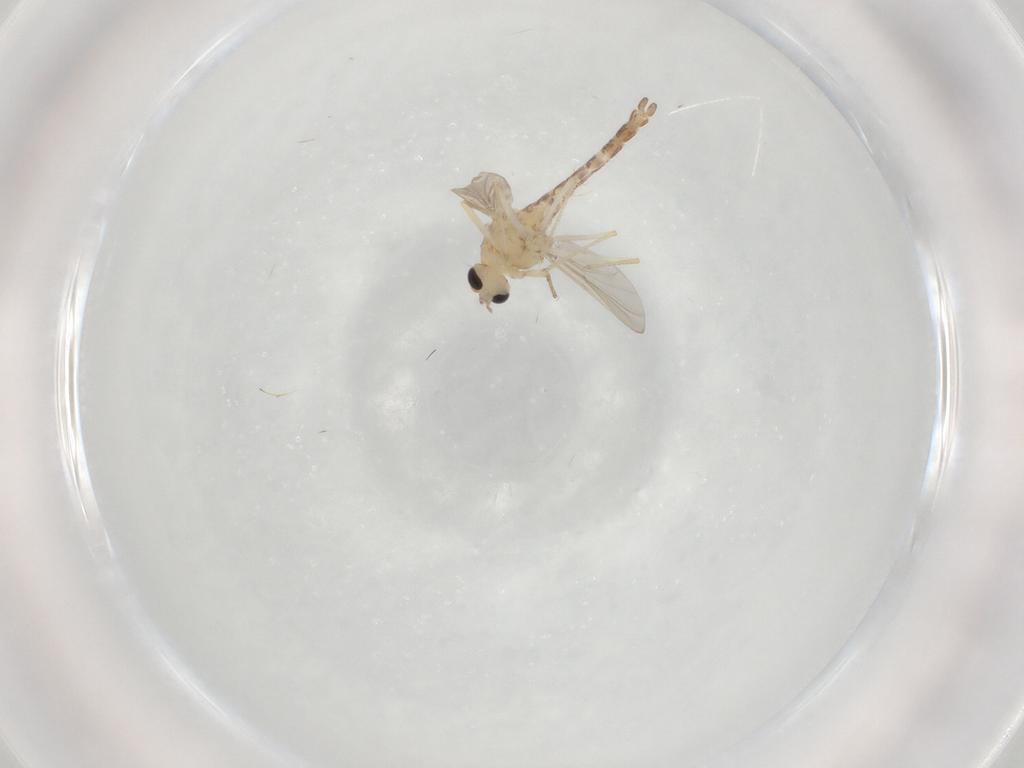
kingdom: Animalia
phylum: Arthropoda
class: Insecta
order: Diptera
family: Chironomidae
